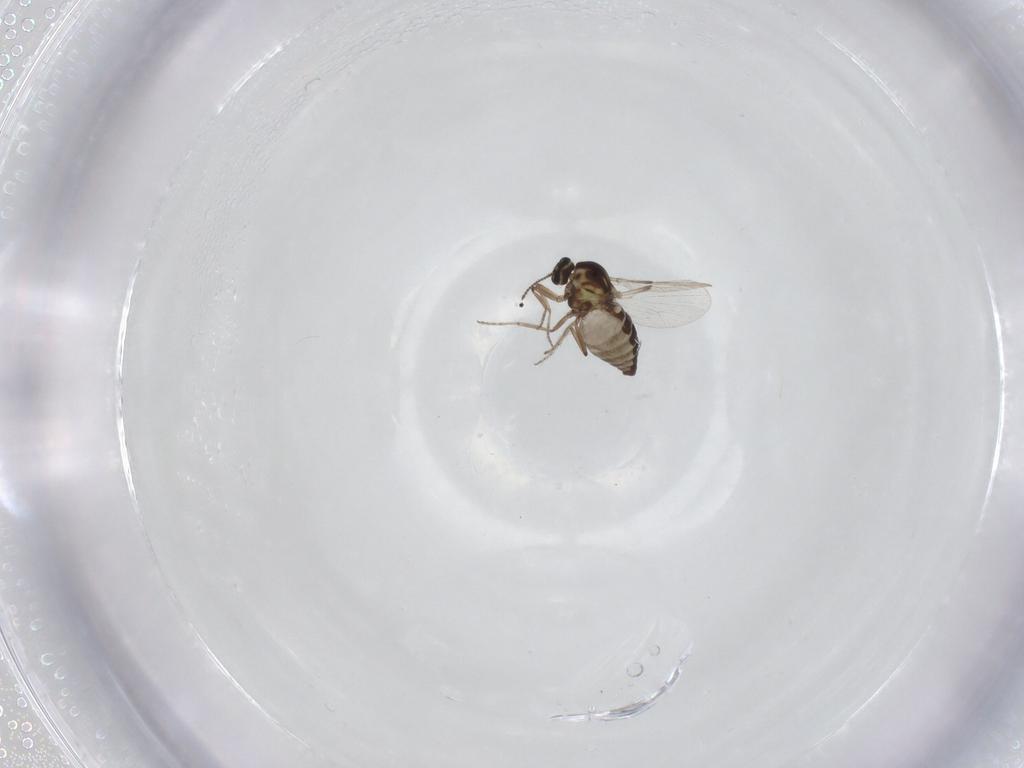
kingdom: Animalia
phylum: Arthropoda
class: Insecta
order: Diptera
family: Ceratopogonidae
